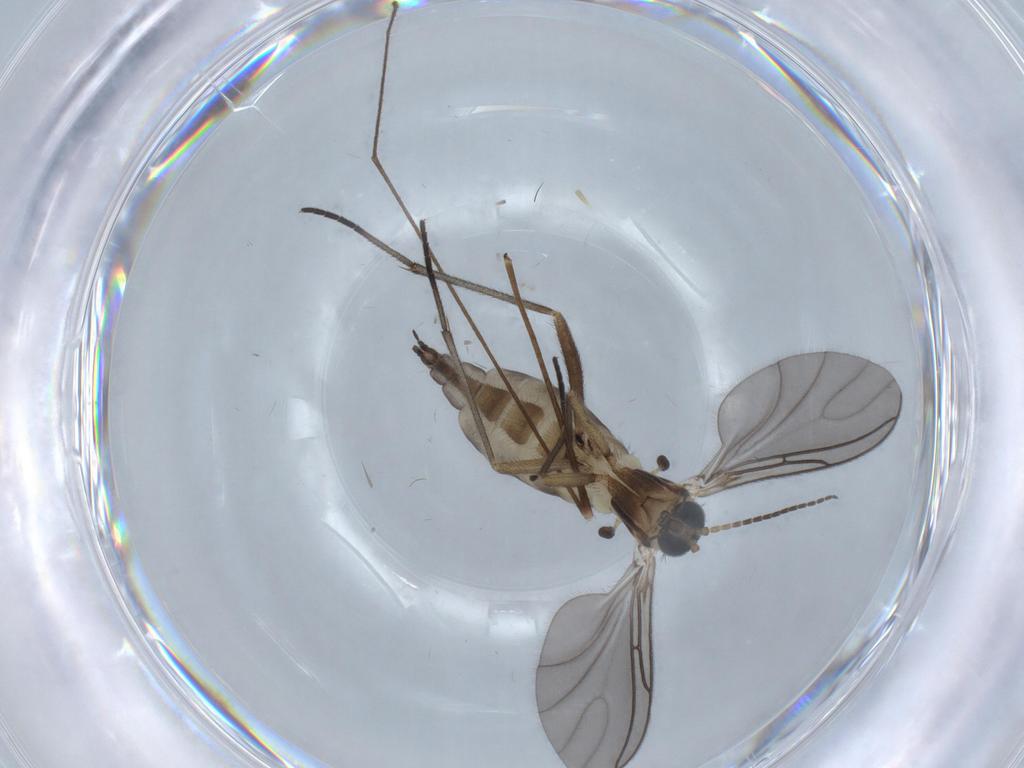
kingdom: Animalia
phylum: Arthropoda
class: Insecta
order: Diptera
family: Sciaridae
